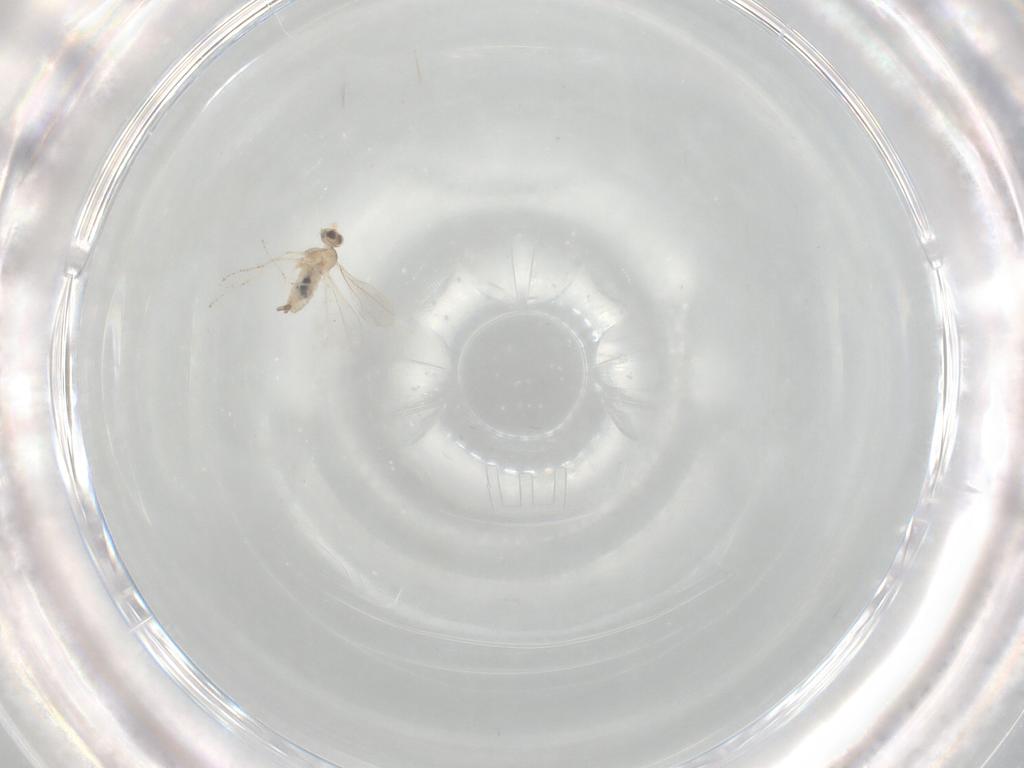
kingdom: Animalia
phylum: Arthropoda
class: Insecta
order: Diptera
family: Cecidomyiidae
